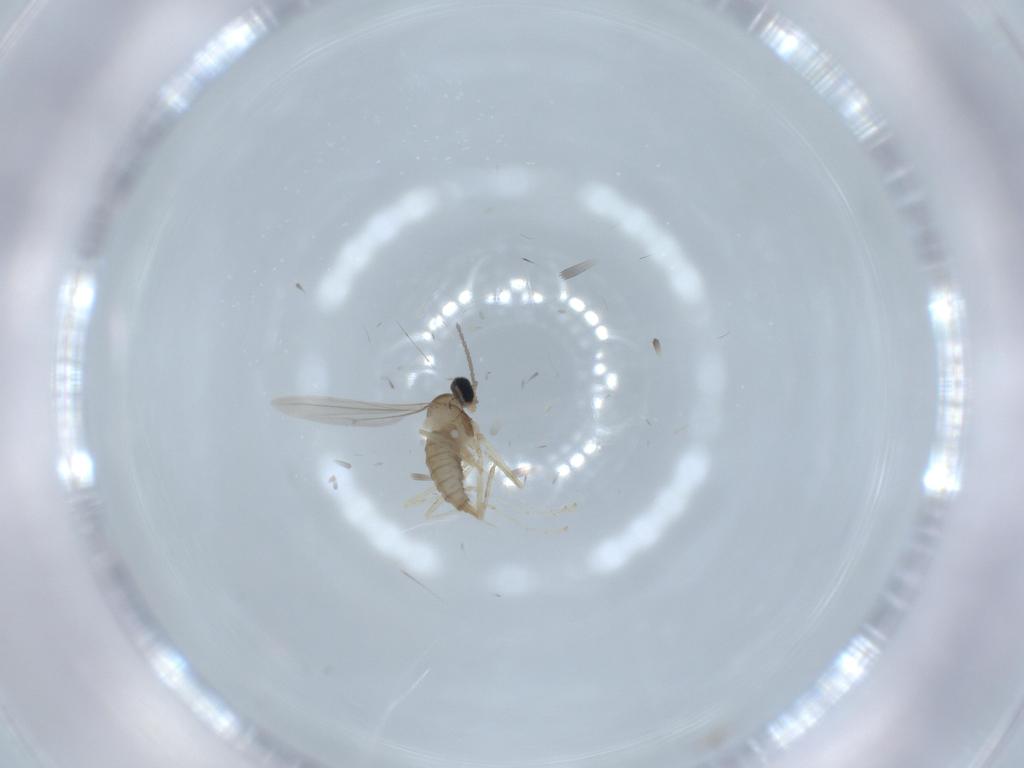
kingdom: Animalia
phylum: Arthropoda
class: Insecta
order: Diptera
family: Cecidomyiidae
